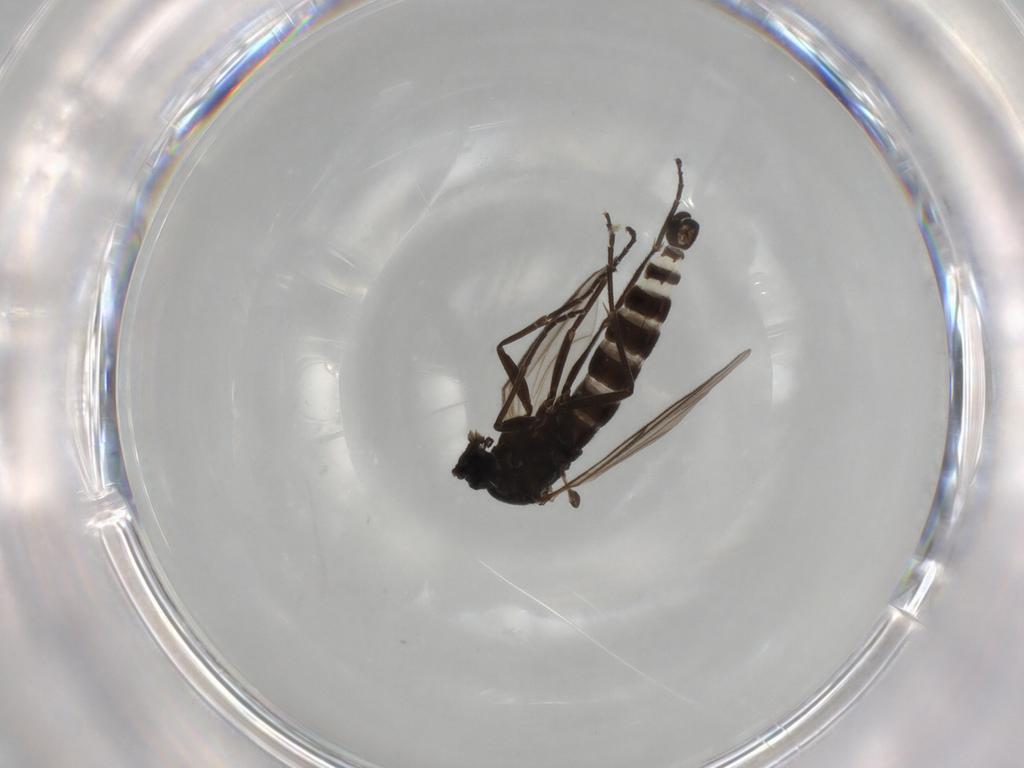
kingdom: Animalia
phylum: Arthropoda
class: Insecta
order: Diptera
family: Sciaridae
